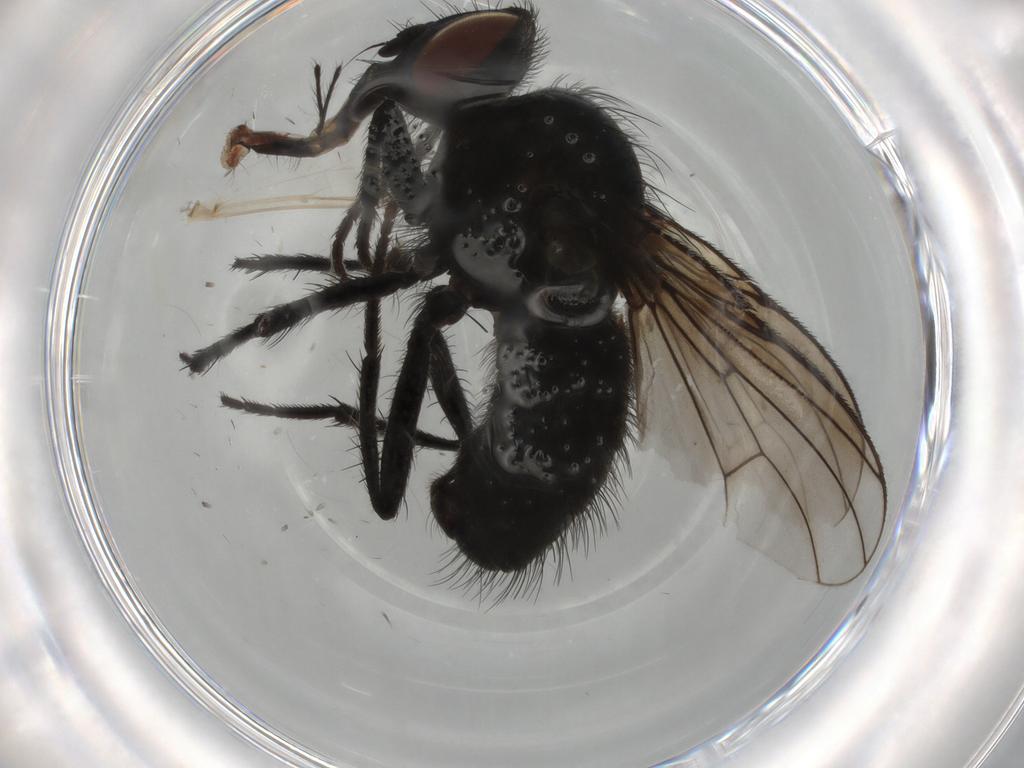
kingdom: Animalia
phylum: Arthropoda
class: Insecta
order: Diptera
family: Muscidae
